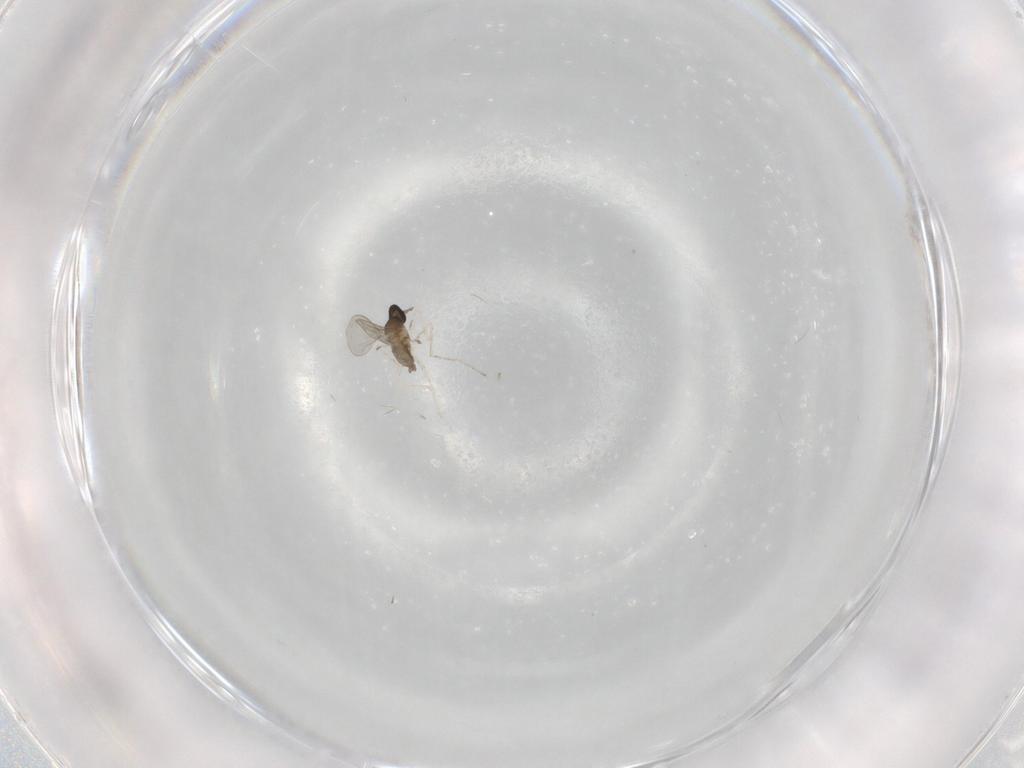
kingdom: Animalia
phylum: Arthropoda
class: Insecta
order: Diptera
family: Cecidomyiidae
